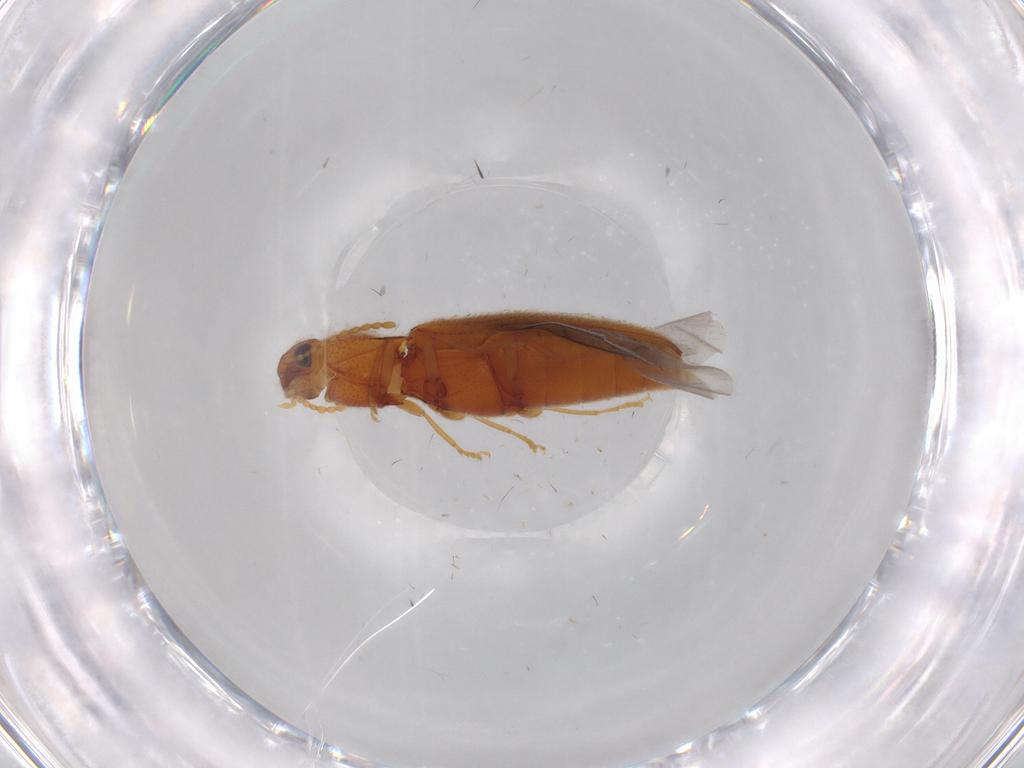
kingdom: Animalia
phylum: Arthropoda
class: Insecta
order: Coleoptera
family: Elateridae
